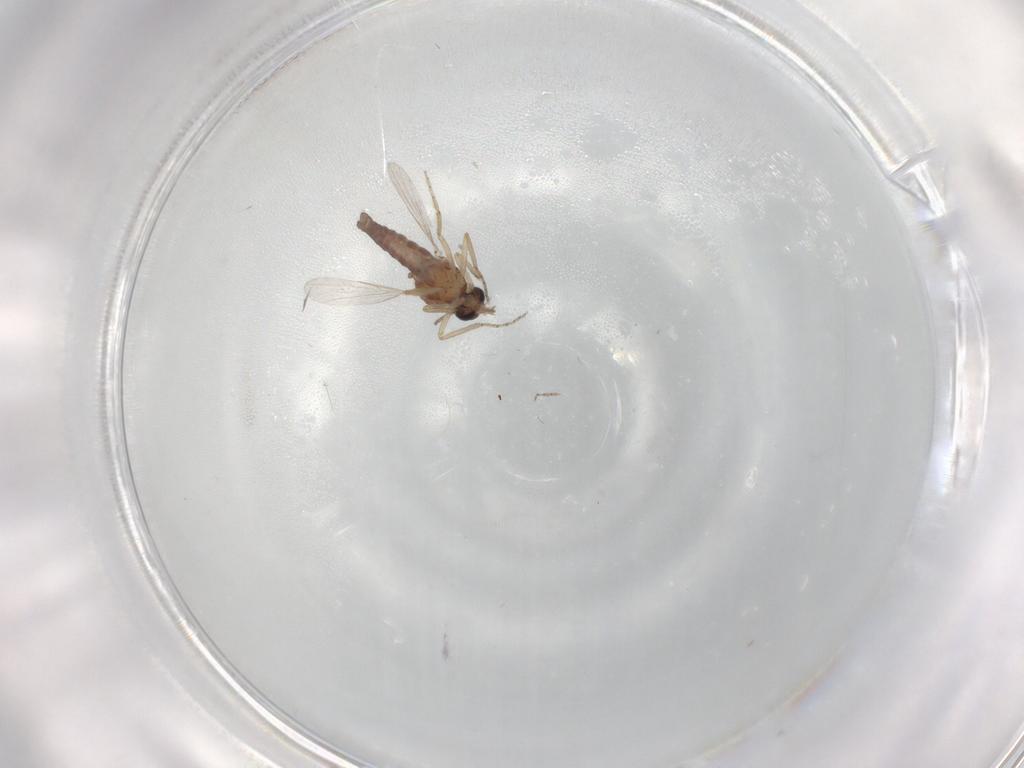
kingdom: Animalia
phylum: Arthropoda
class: Insecta
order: Diptera
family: Ceratopogonidae
